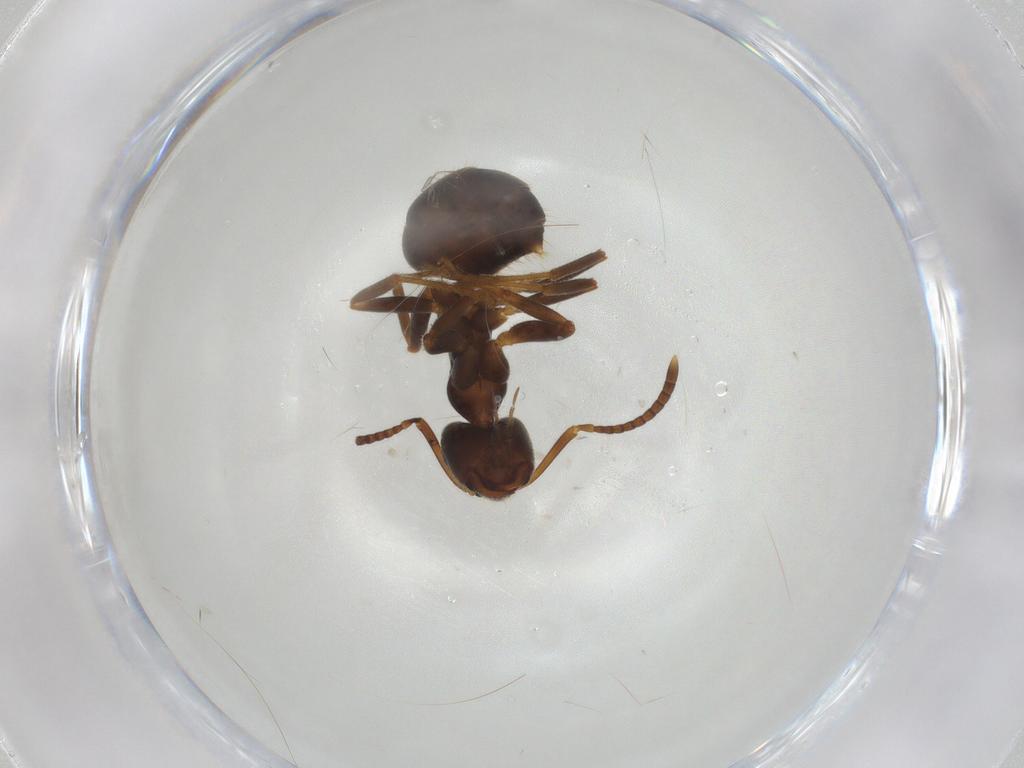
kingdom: Animalia
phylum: Arthropoda
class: Insecta
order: Hymenoptera
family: Formicidae
